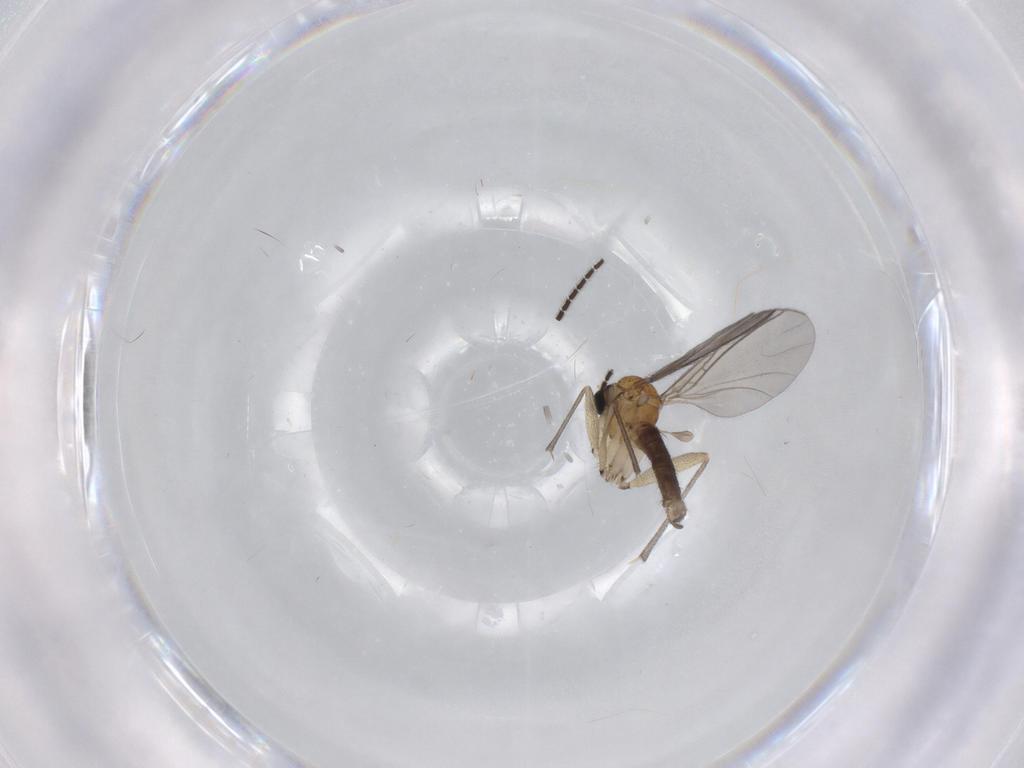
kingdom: Animalia
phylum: Arthropoda
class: Insecta
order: Diptera
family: Sciaridae
